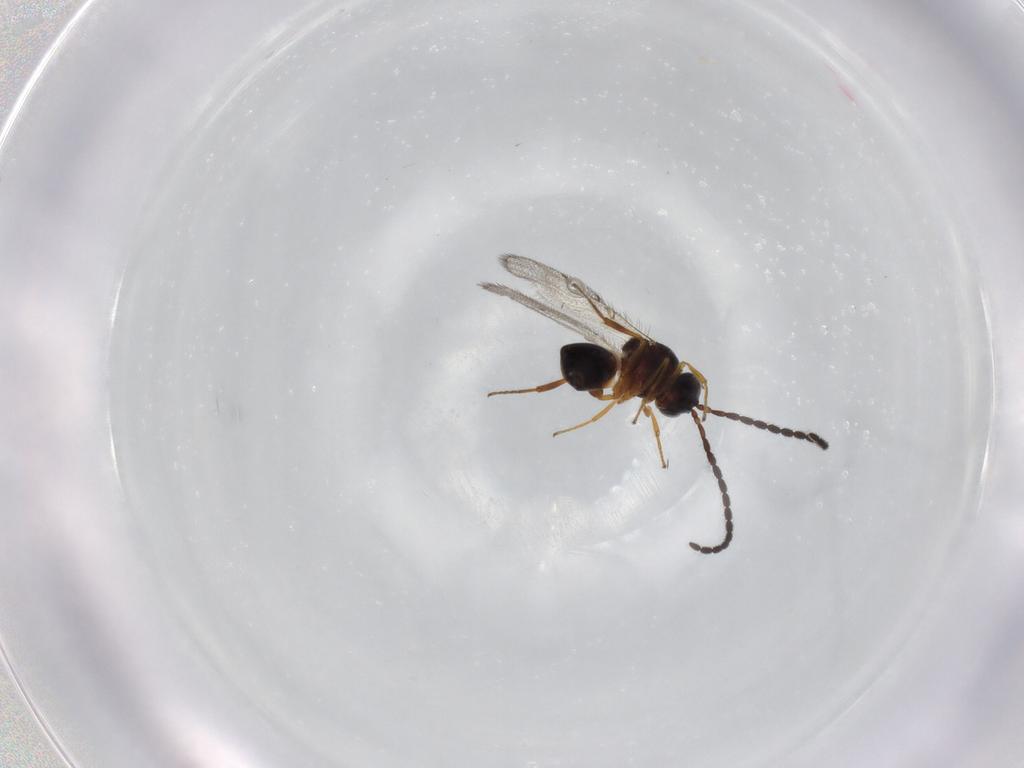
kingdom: Animalia
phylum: Arthropoda
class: Insecta
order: Hymenoptera
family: Figitidae
